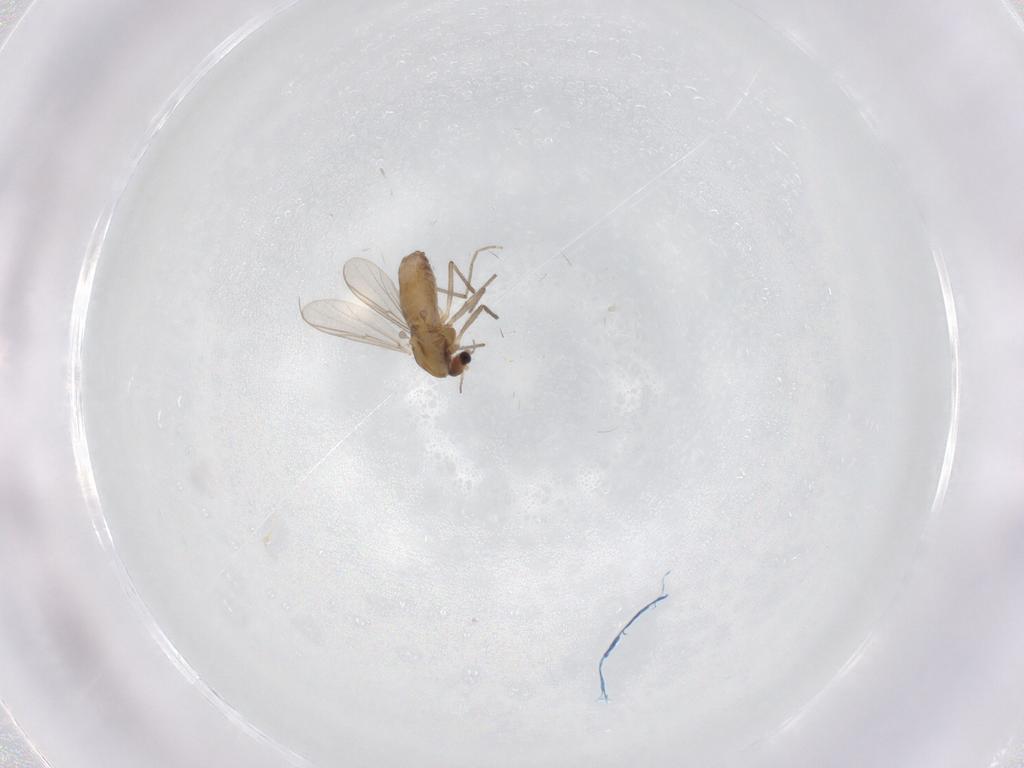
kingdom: Animalia
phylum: Arthropoda
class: Insecta
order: Diptera
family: Chironomidae
